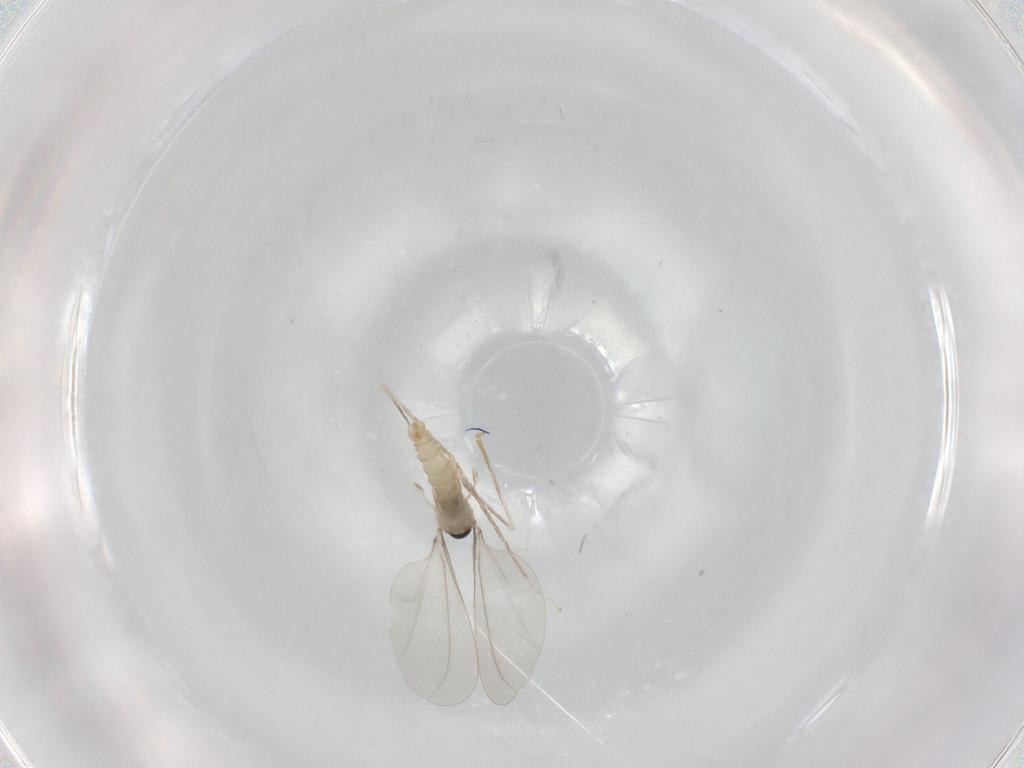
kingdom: Animalia
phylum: Arthropoda
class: Insecta
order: Diptera
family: Cecidomyiidae
